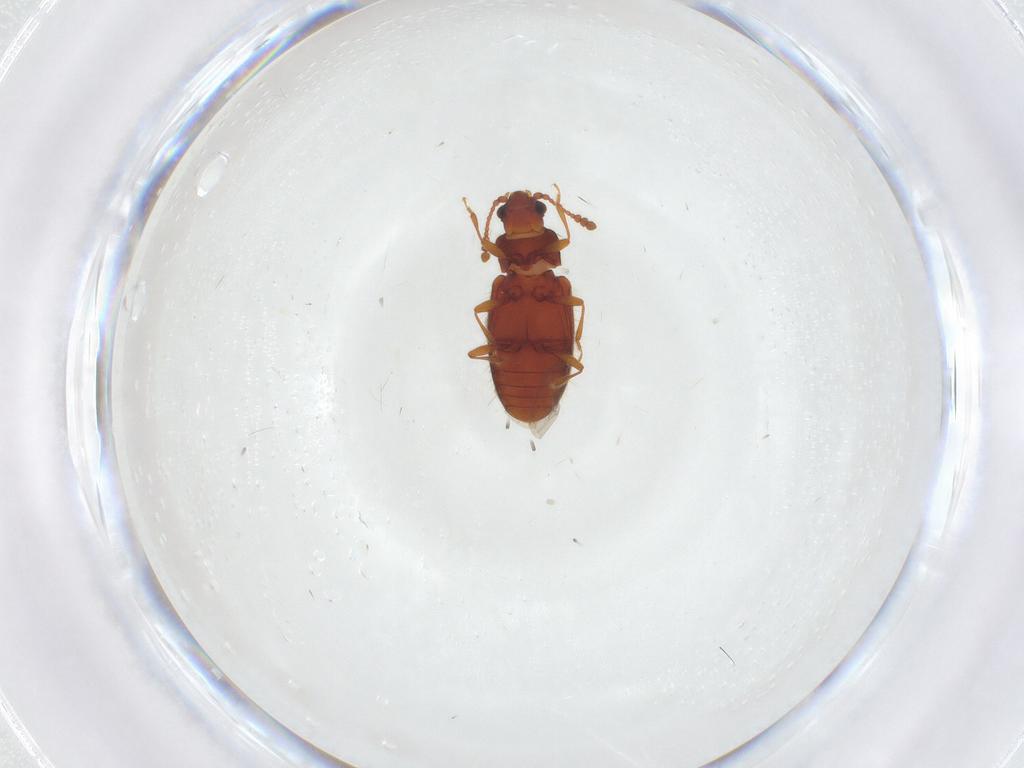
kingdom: Animalia
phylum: Arthropoda
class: Insecta
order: Coleoptera
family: Cryptophagidae
